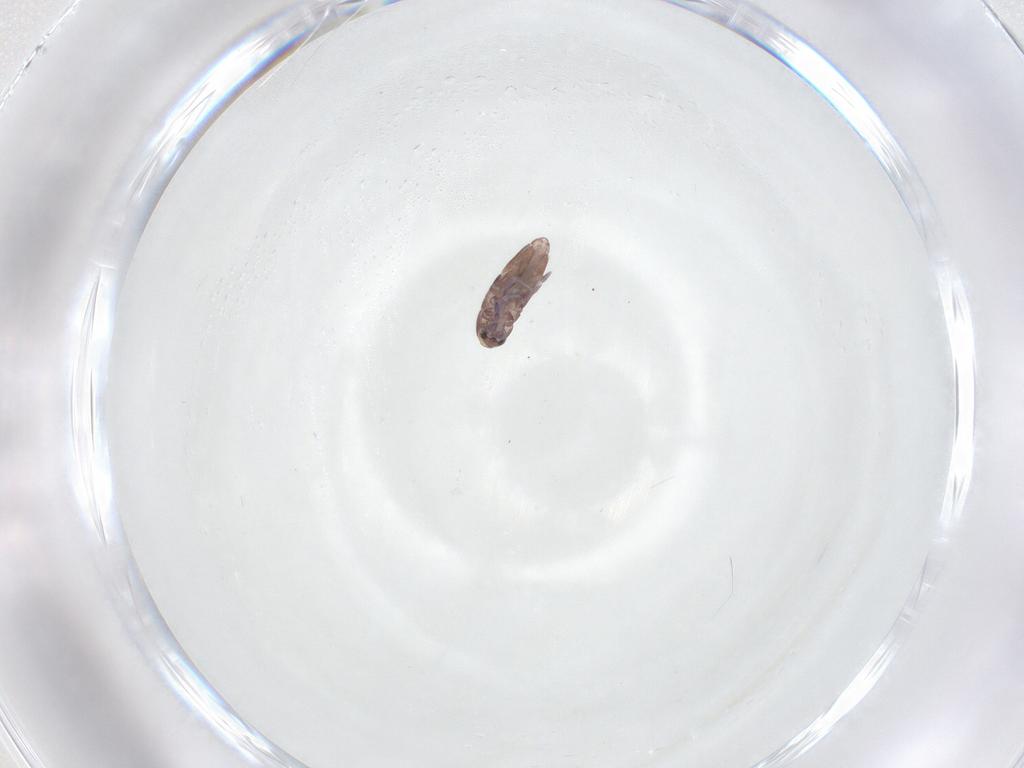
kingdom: Animalia
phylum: Arthropoda
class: Collembola
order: Entomobryomorpha
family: Entomobryidae
